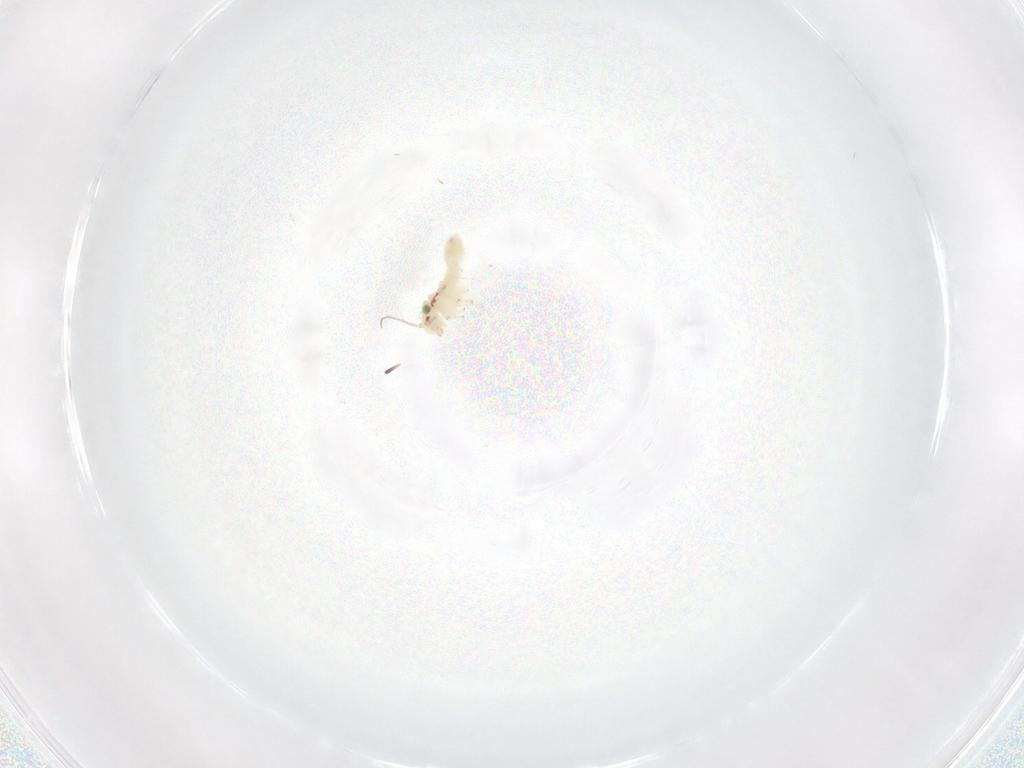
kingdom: Animalia
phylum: Arthropoda
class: Insecta
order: Psocodea
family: Lepidopsocidae
